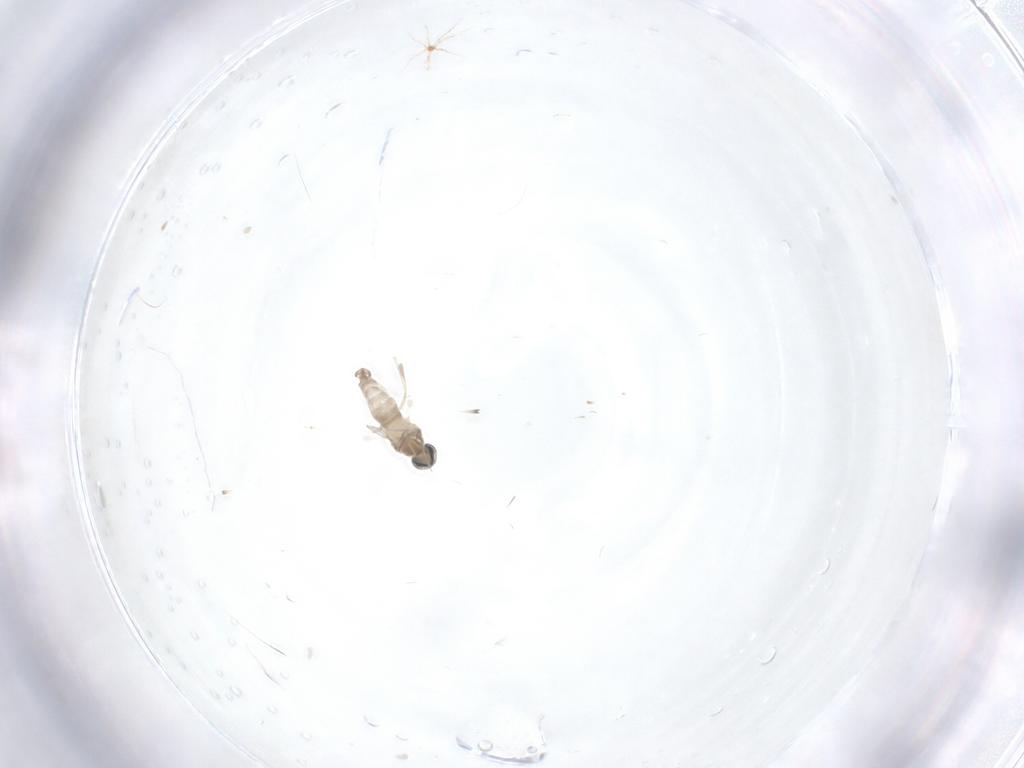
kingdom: Animalia
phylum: Arthropoda
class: Insecta
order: Diptera
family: Cecidomyiidae
